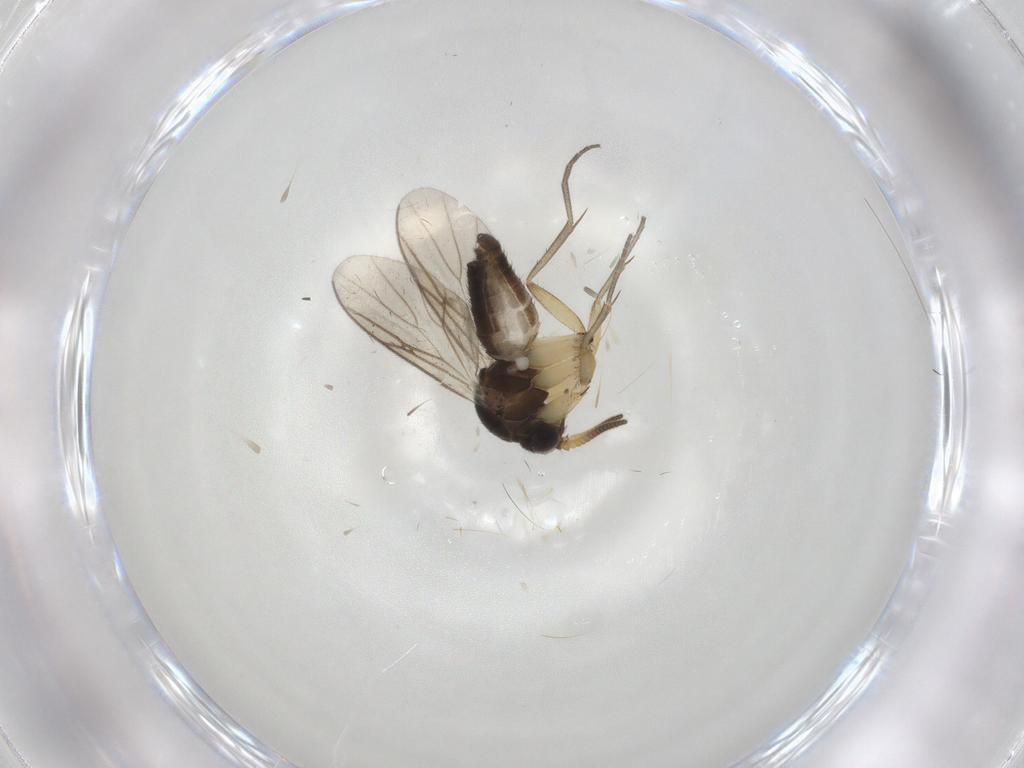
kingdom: Animalia
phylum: Arthropoda
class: Insecta
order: Diptera
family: Mycetophilidae
